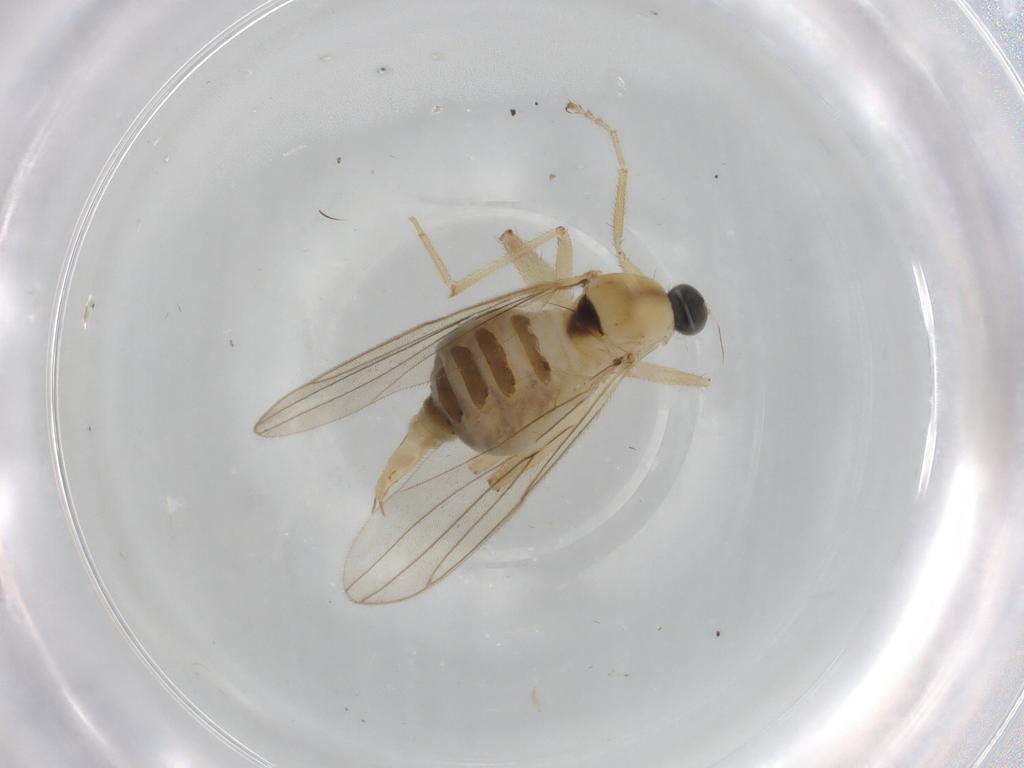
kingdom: Animalia
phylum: Arthropoda
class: Insecta
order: Diptera
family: Hybotidae
